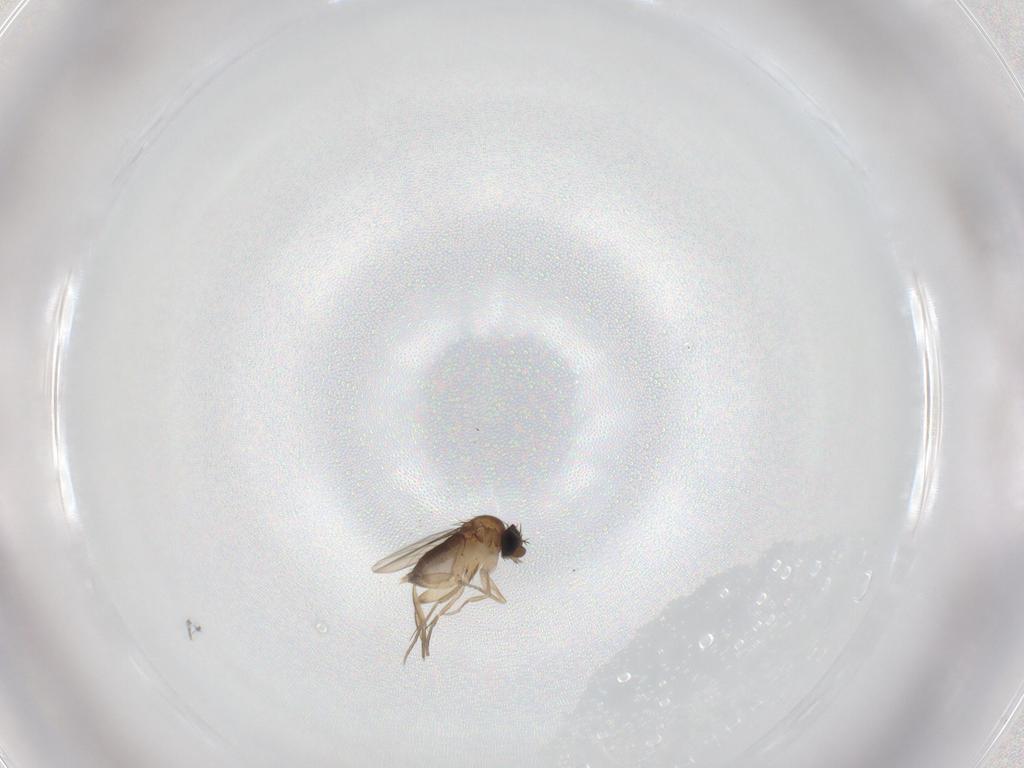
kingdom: Animalia
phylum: Arthropoda
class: Insecta
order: Diptera
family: Phoridae
